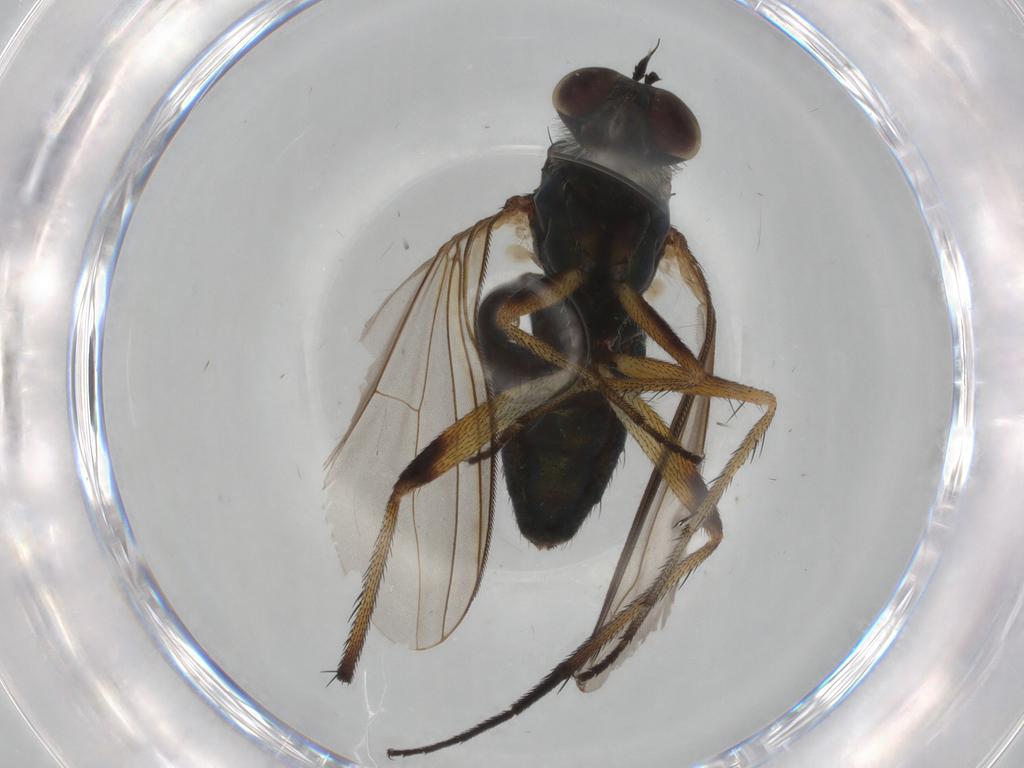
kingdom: Animalia
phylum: Arthropoda
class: Insecta
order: Diptera
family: Dolichopodidae
